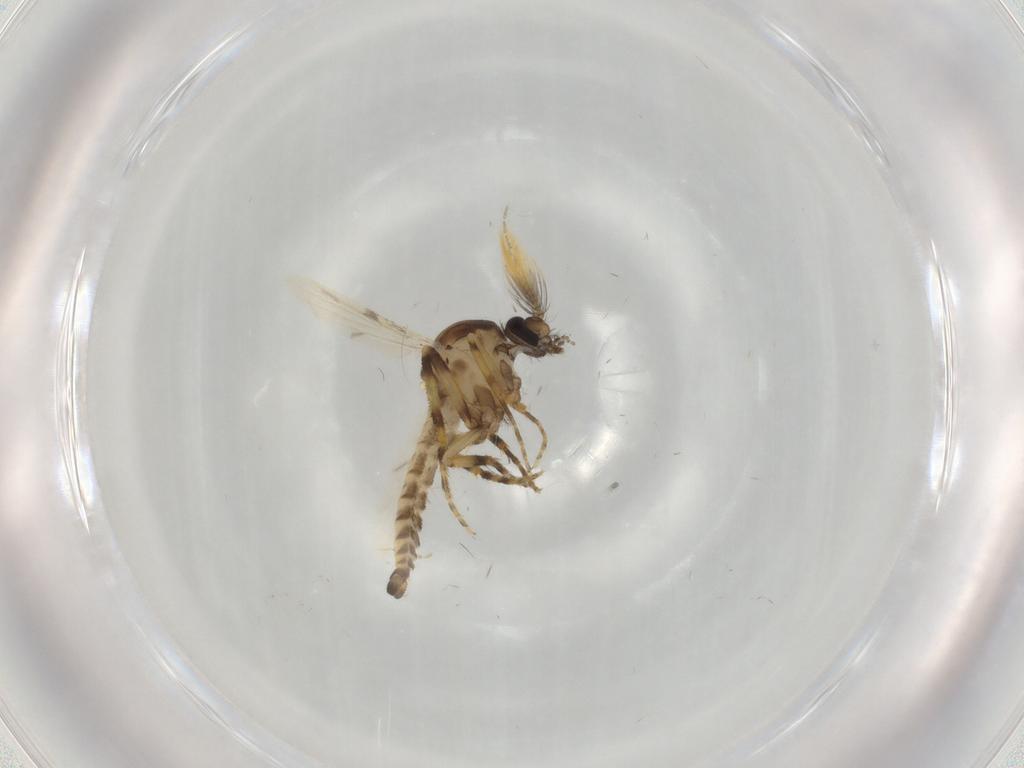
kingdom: Animalia
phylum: Arthropoda
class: Insecta
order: Diptera
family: Ceratopogonidae
